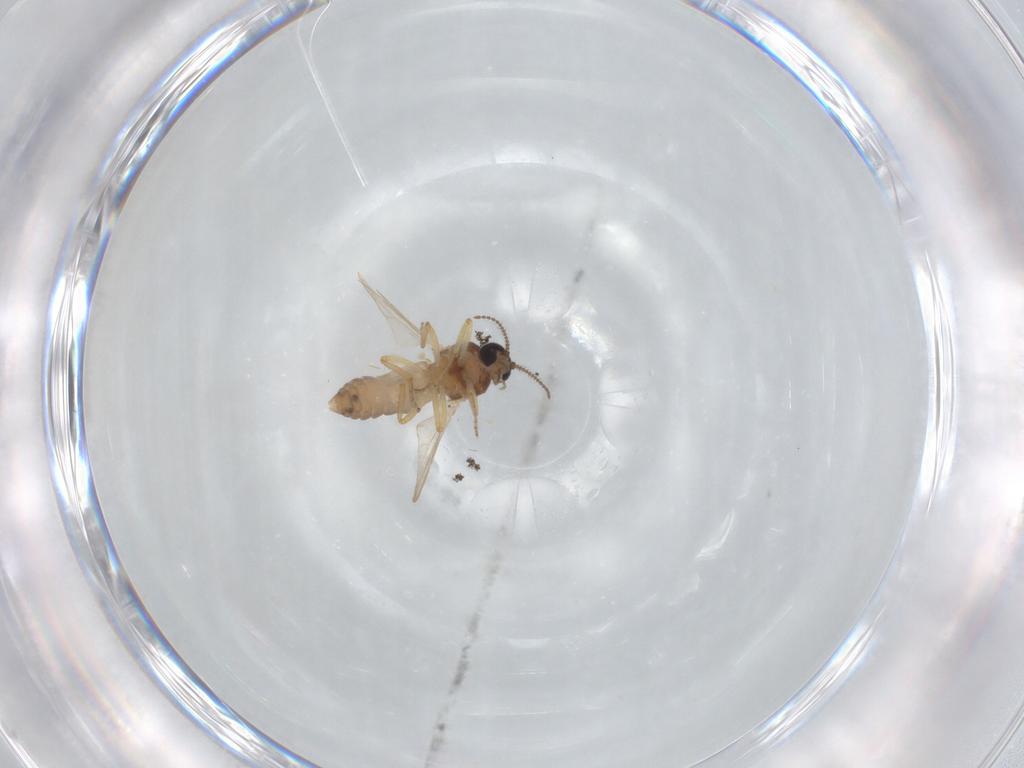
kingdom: Animalia
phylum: Arthropoda
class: Insecta
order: Diptera
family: Ceratopogonidae
